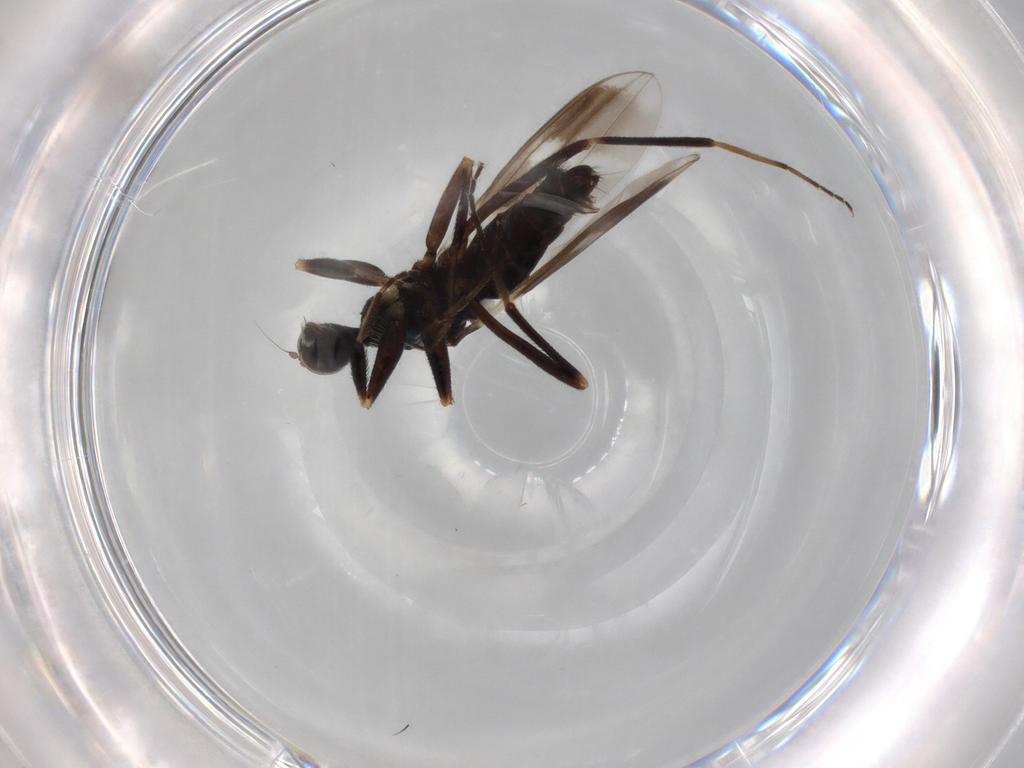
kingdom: Animalia
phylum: Arthropoda
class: Insecta
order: Diptera
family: Hybotidae
